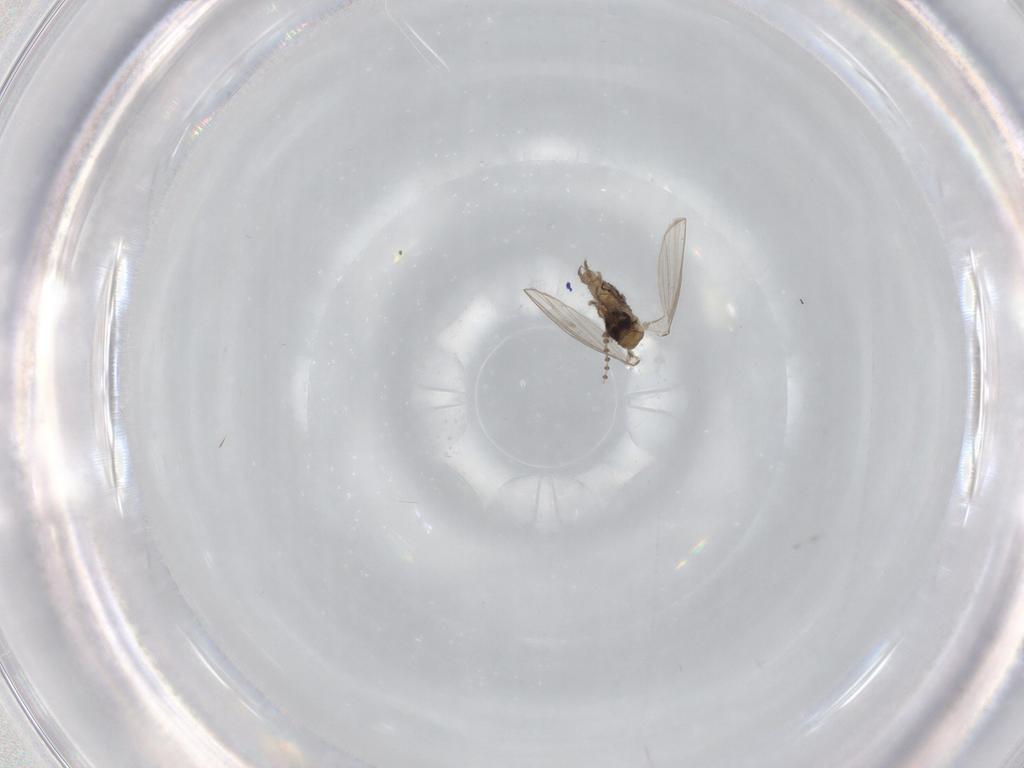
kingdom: Animalia
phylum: Arthropoda
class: Insecta
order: Diptera
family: Psychodidae
